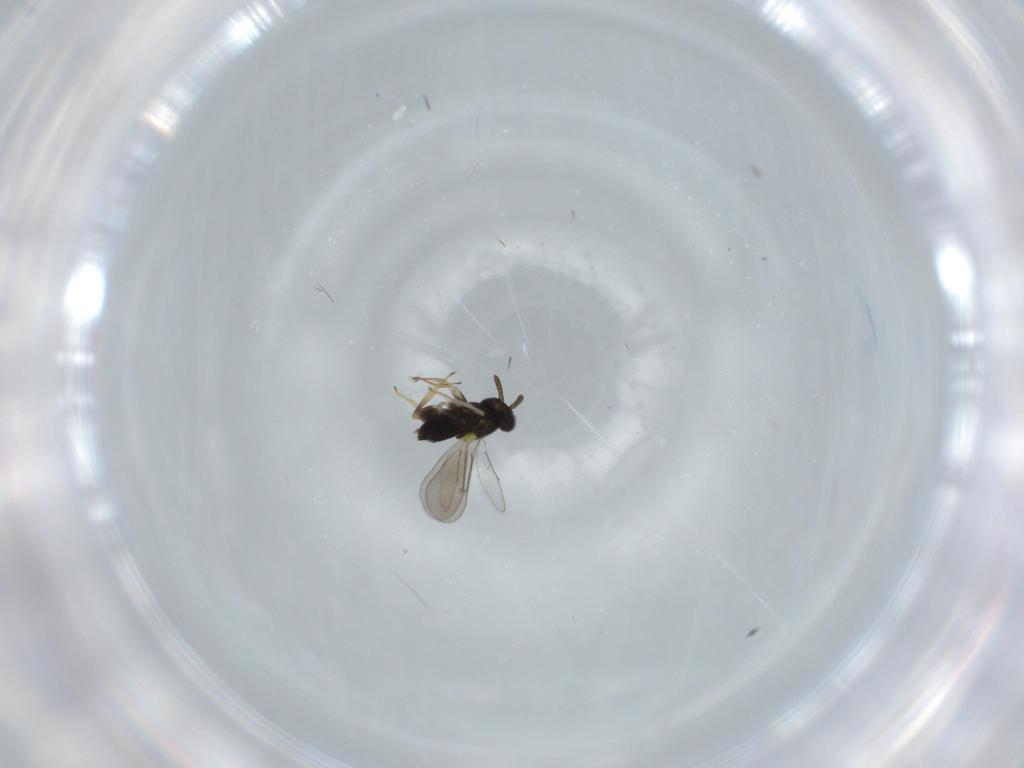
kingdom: Animalia
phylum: Arthropoda
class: Insecta
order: Hymenoptera
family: Aphelinidae
